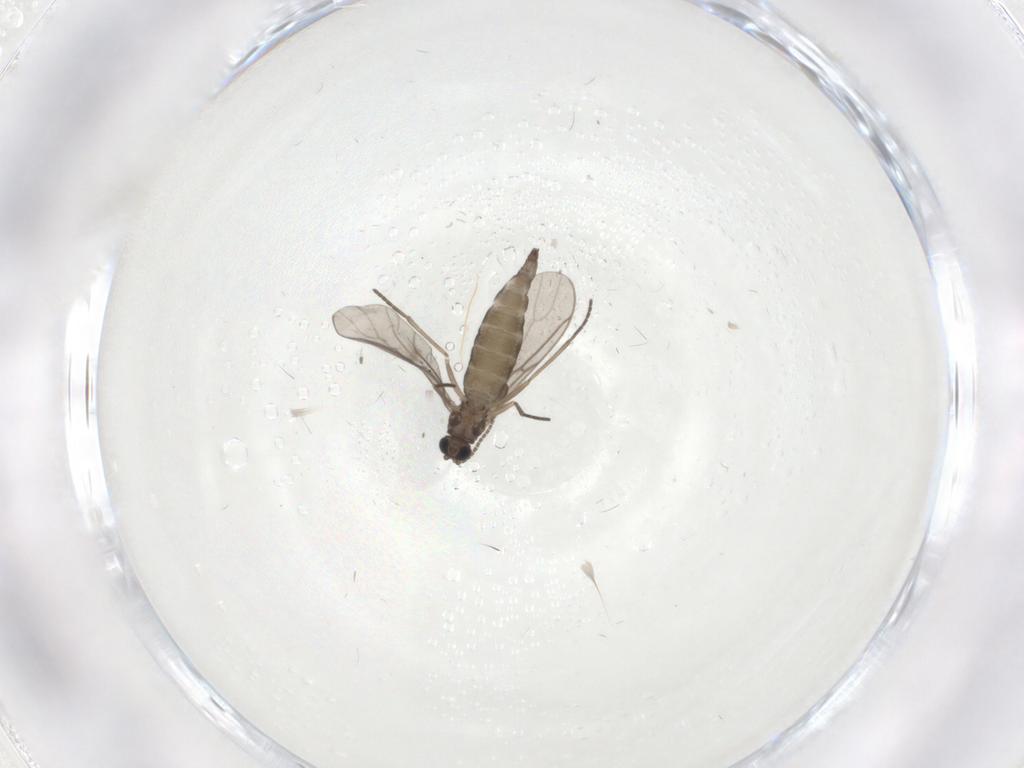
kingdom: Animalia
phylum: Arthropoda
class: Insecta
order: Diptera
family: Sciaridae
